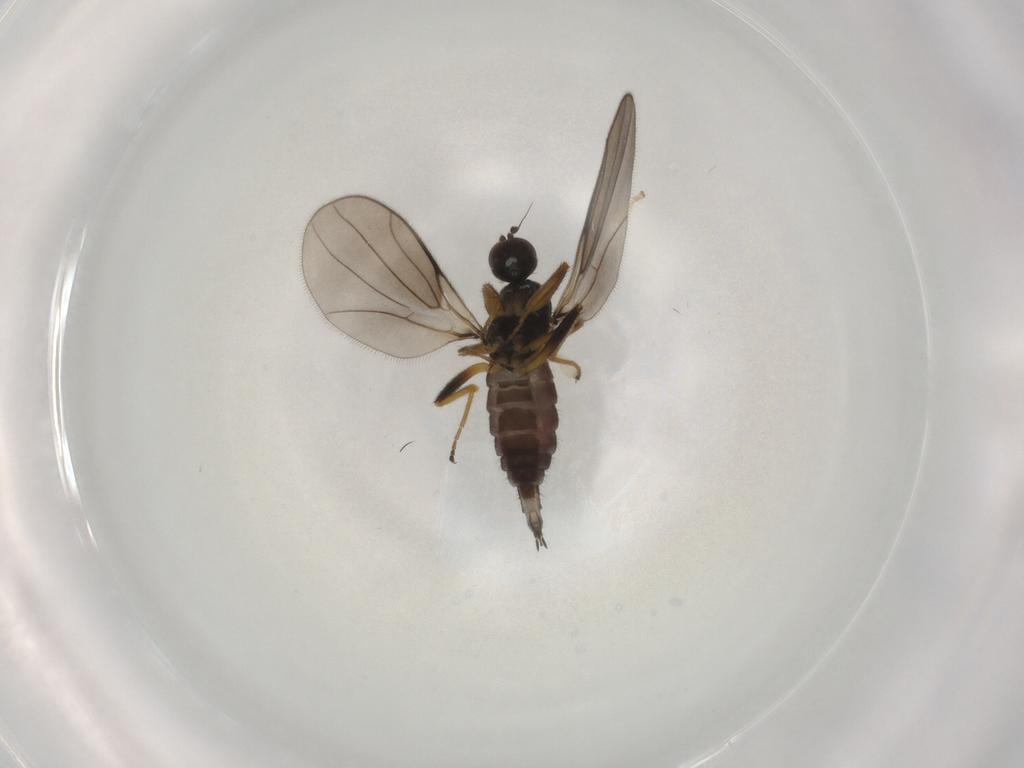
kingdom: Animalia
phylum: Arthropoda
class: Insecta
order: Diptera
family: Hybotidae
